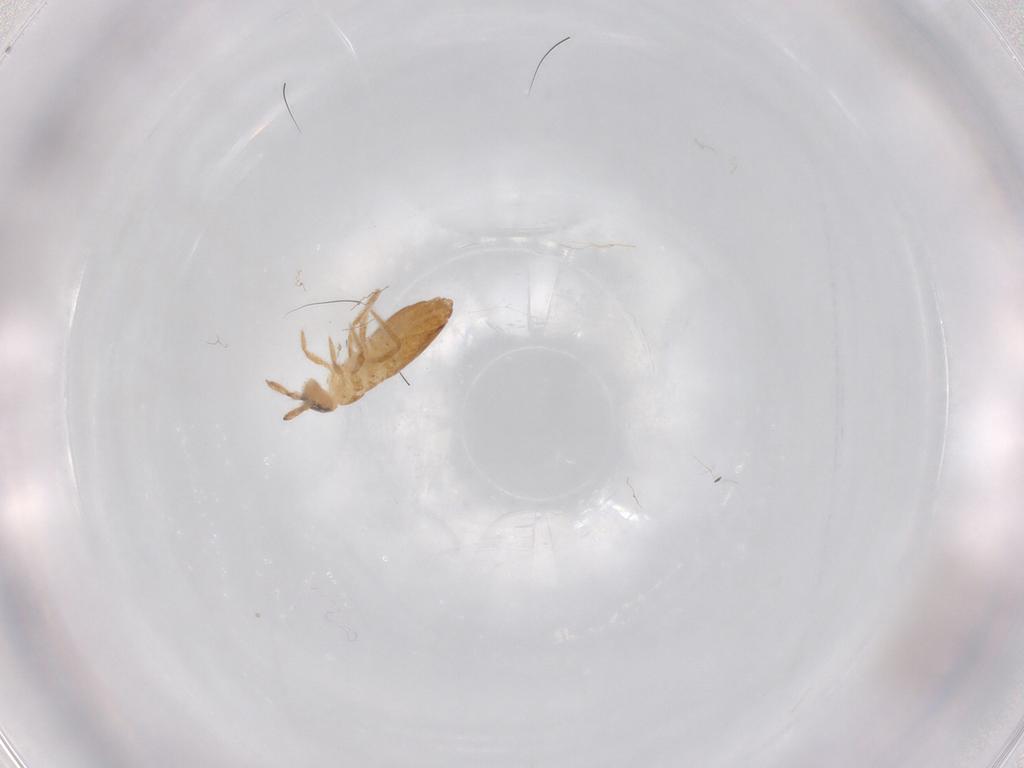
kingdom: Animalia
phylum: Arthropoda
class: Collembola
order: Entomobryomorpha
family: Entomobryidae
